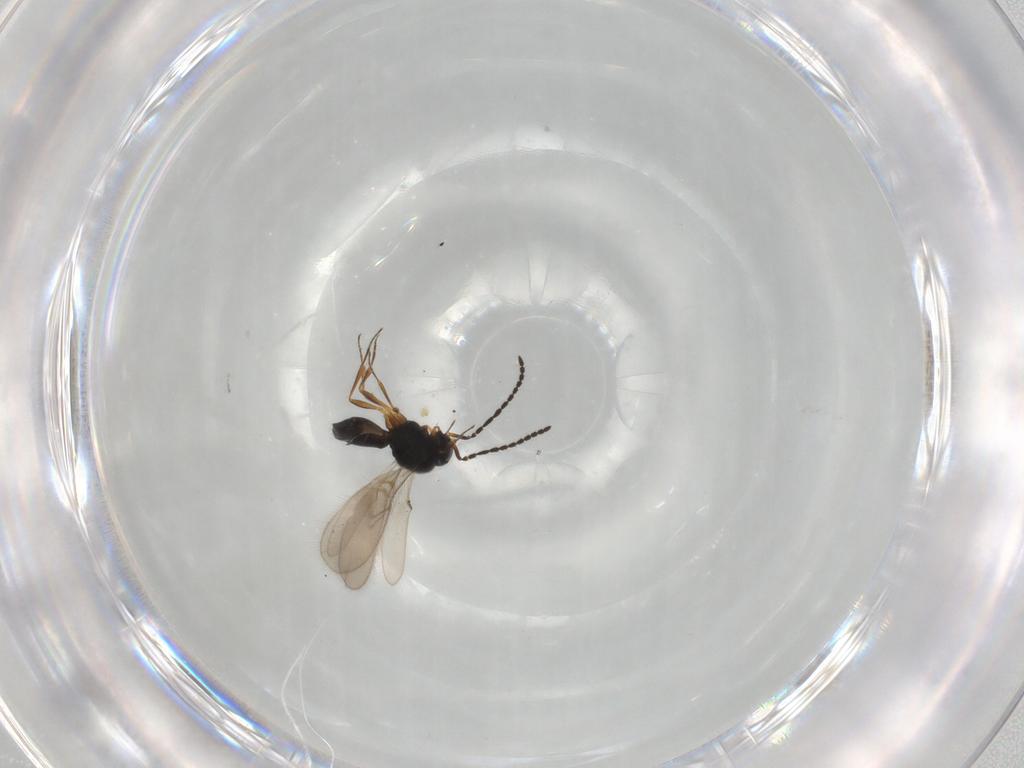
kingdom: Animalia
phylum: Arthropoda
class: Insecta
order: Hymenoptera
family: Scelionidae
